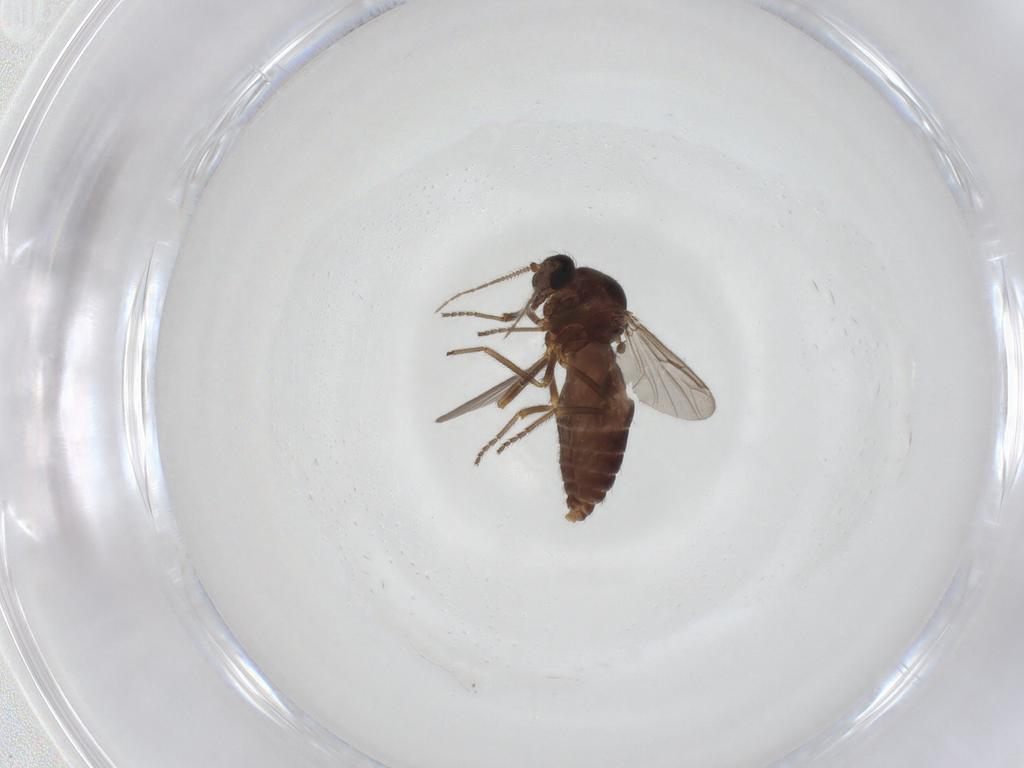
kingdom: Animalia
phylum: Arthropoda
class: Insecta
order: Diptera
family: Ceratopogonidae
